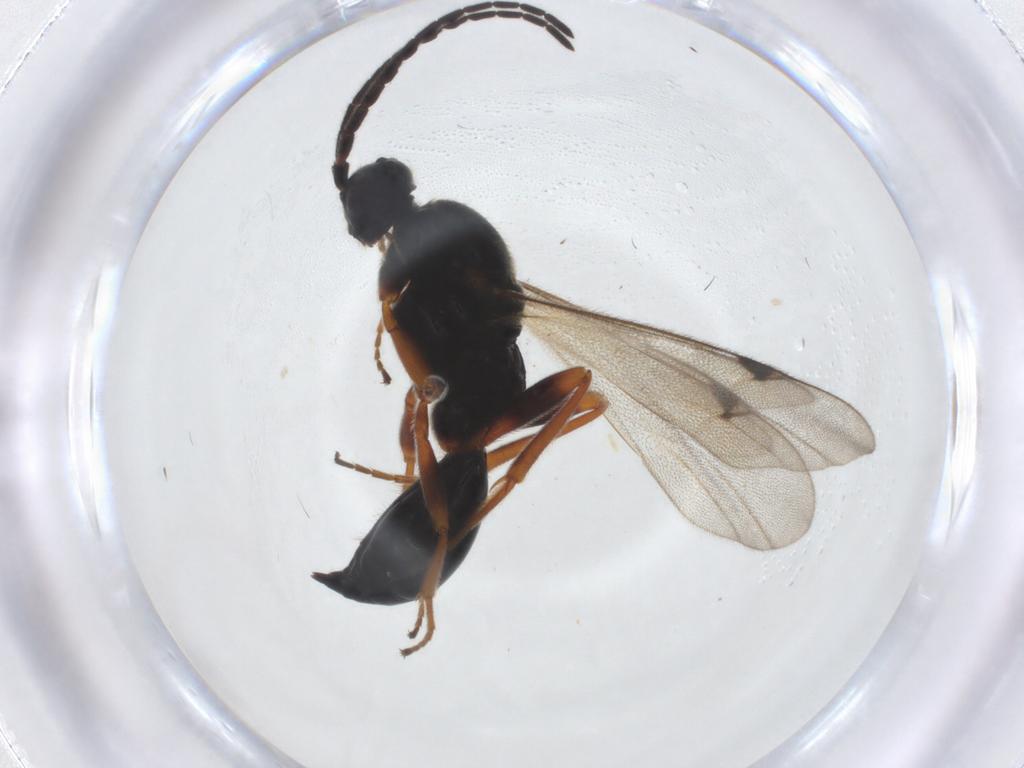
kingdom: Animalia
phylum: Arthropoda
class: Insecta
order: Hymenoptera
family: Proctotrupidae
